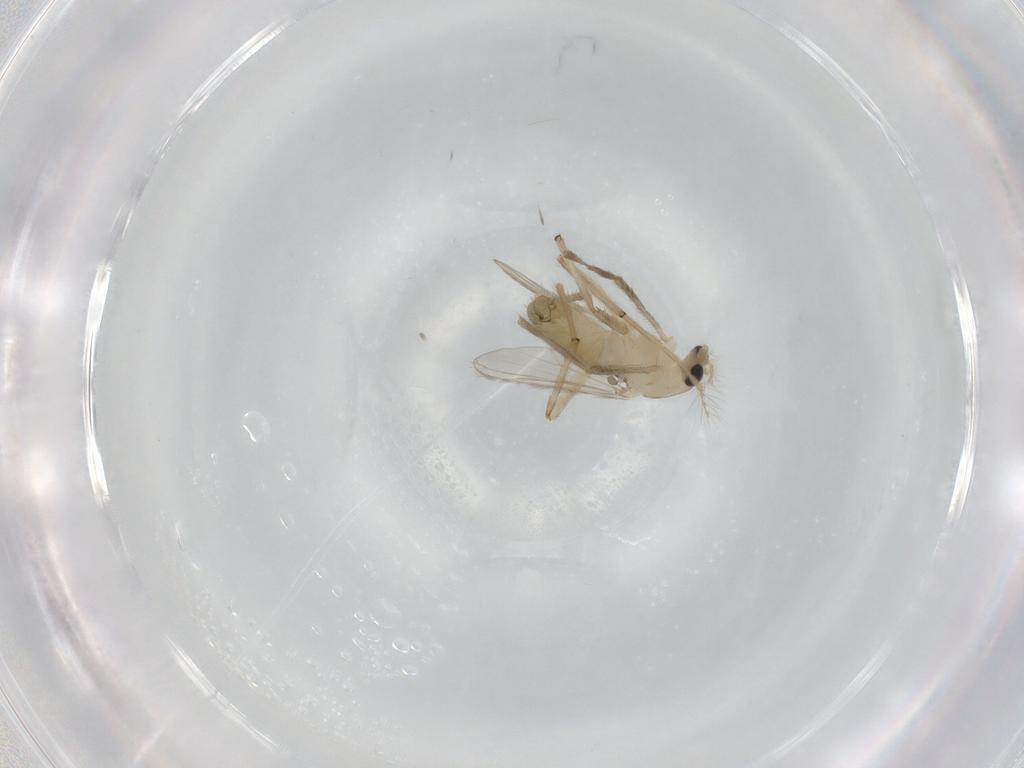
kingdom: Animalia
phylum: Arthropoda
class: Insecta
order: Diptera
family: Chironomidae
